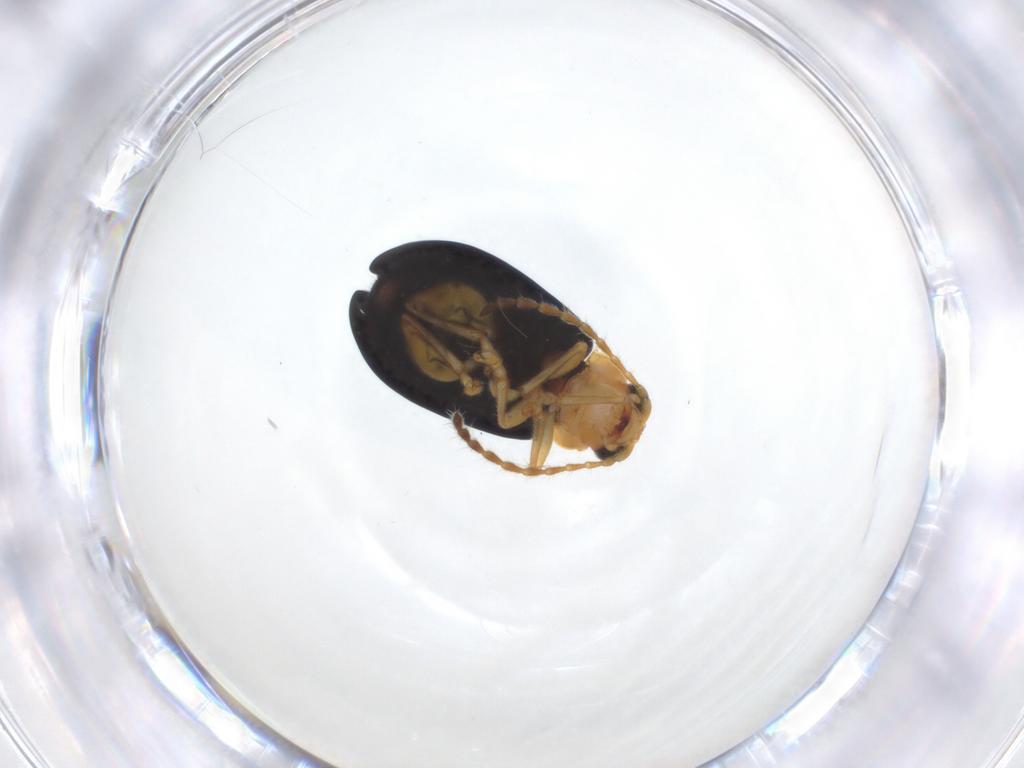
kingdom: Animalia
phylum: Arthropoda
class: Insecta
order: Coleoptera
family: Chrysomelidae
